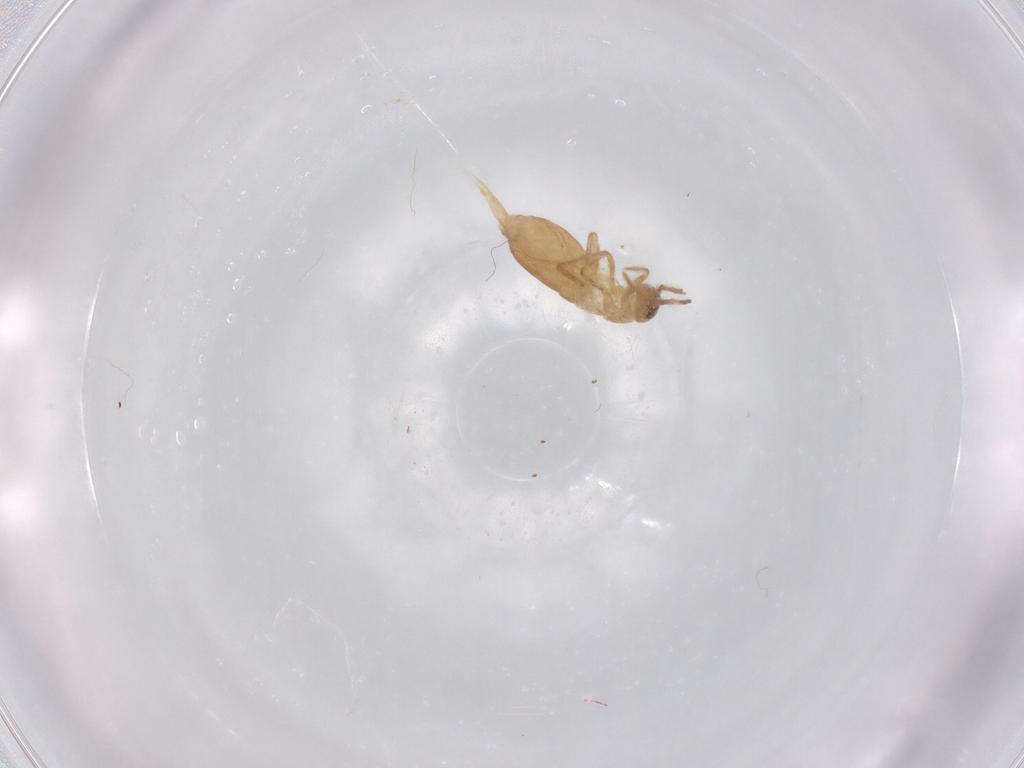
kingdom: Animalia
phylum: Arthropoda
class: Collembola
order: Entomobryomorpha
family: Entomobryidae
